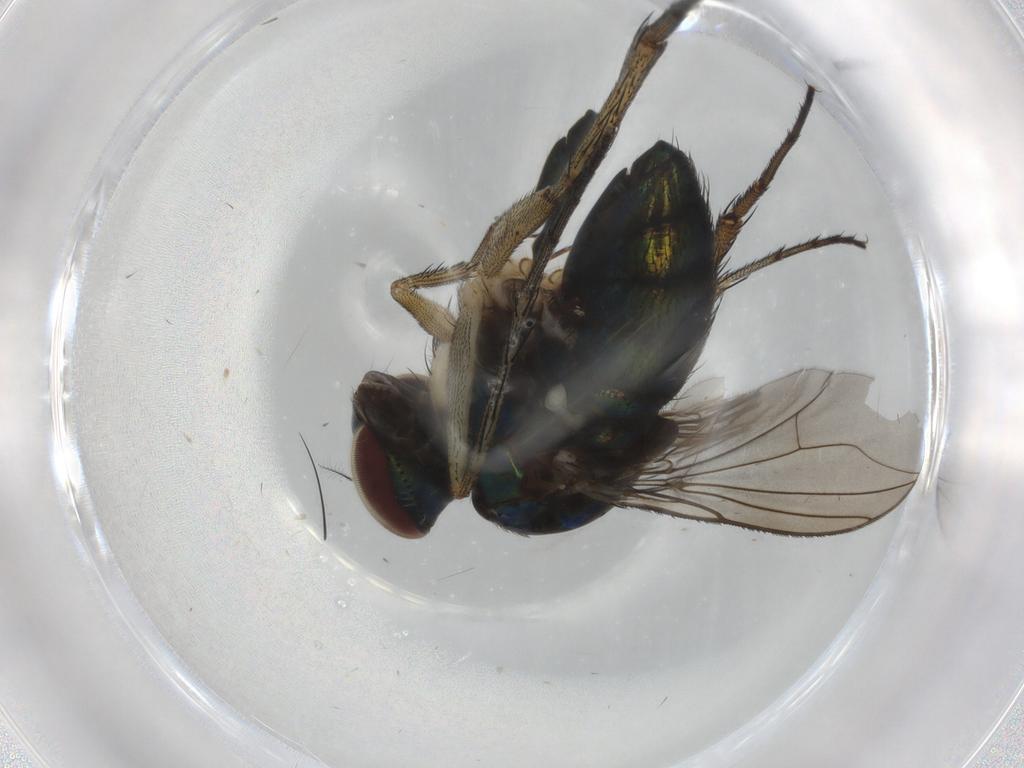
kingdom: Animalia
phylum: Arthropoda
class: Insecta
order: Diptera
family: Dolichopodidae
